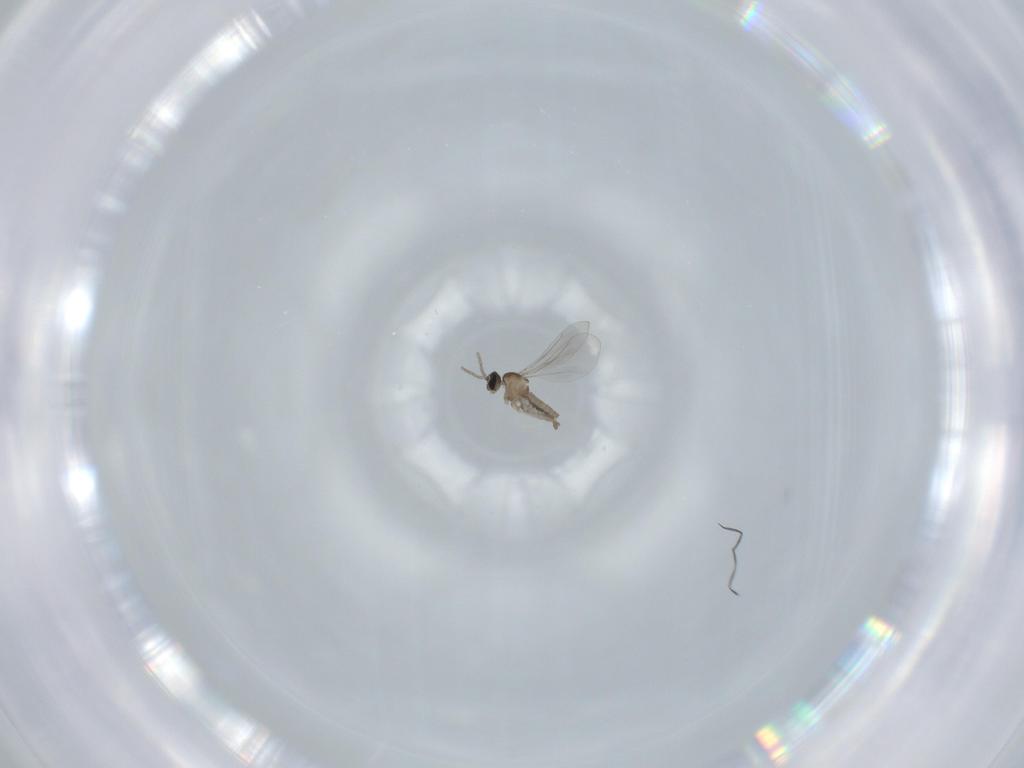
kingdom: Animalia
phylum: Arthropoda
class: Insecta
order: Diptera
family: Cecidomyiidae
